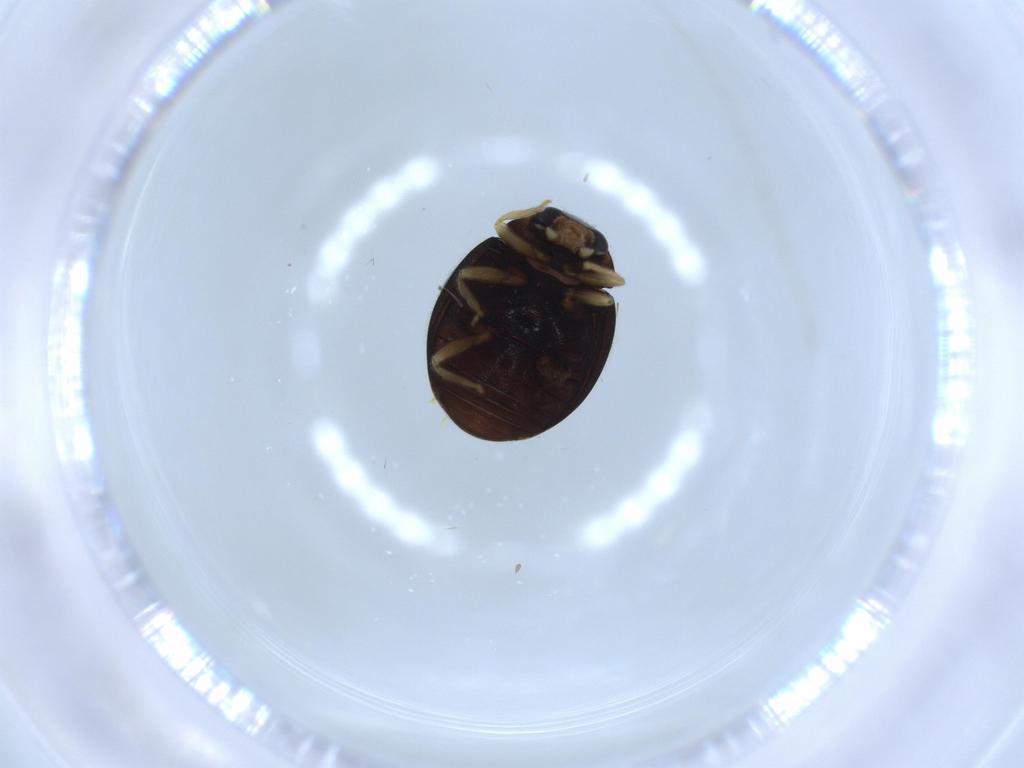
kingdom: Animalia
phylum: Arthropoda
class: Insecta
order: Coleoptera
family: Coccinellidae
